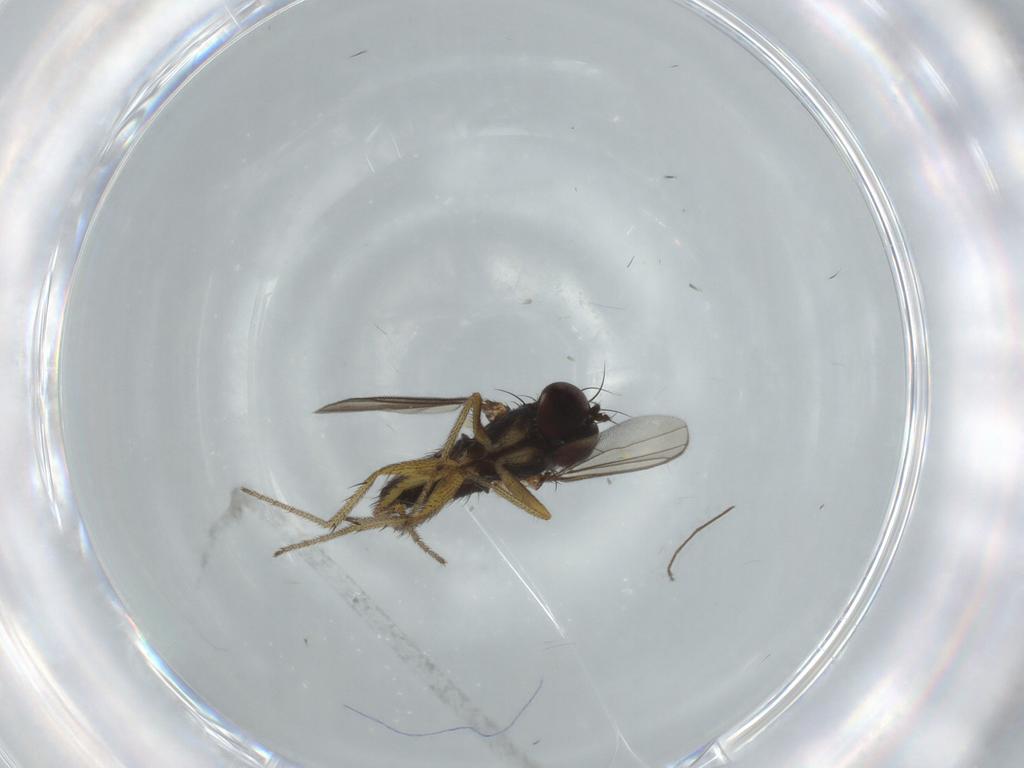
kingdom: Animalia
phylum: Arthropoda
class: Insecta
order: Diptera
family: Chironomidae
